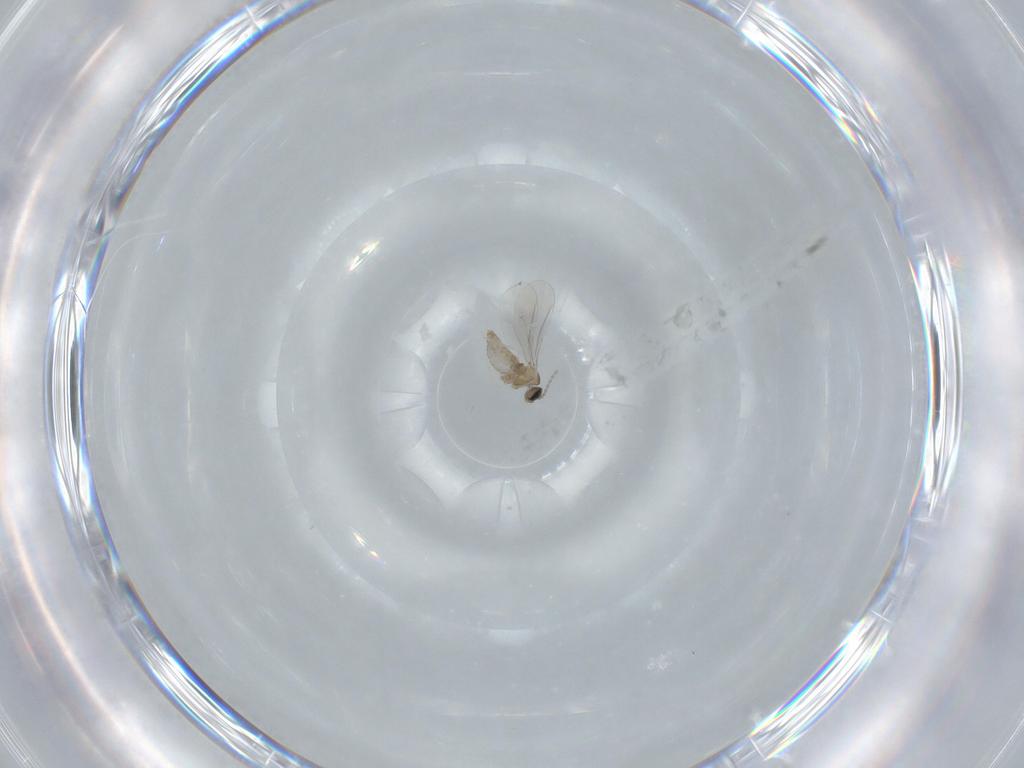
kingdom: Animalia
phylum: Arthropoda
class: Insecta
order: Diptera
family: Cecidomyiidae
